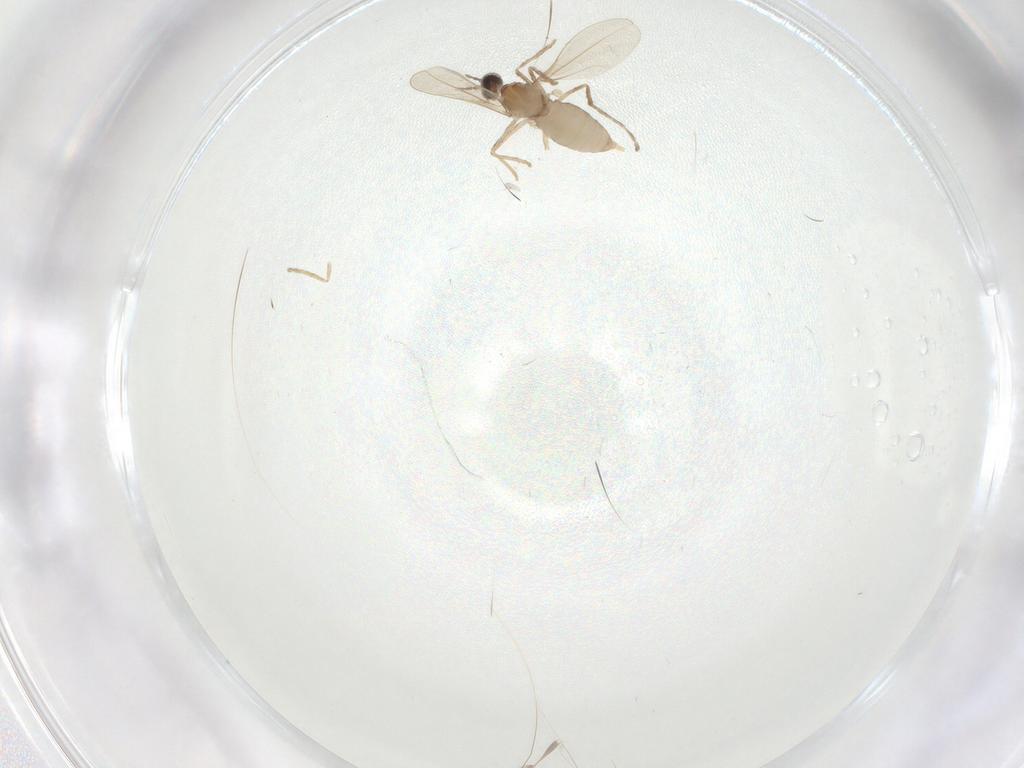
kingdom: Animalia
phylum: Arthropoda
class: Insecta
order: Diptera
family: Cecidomyiidae
